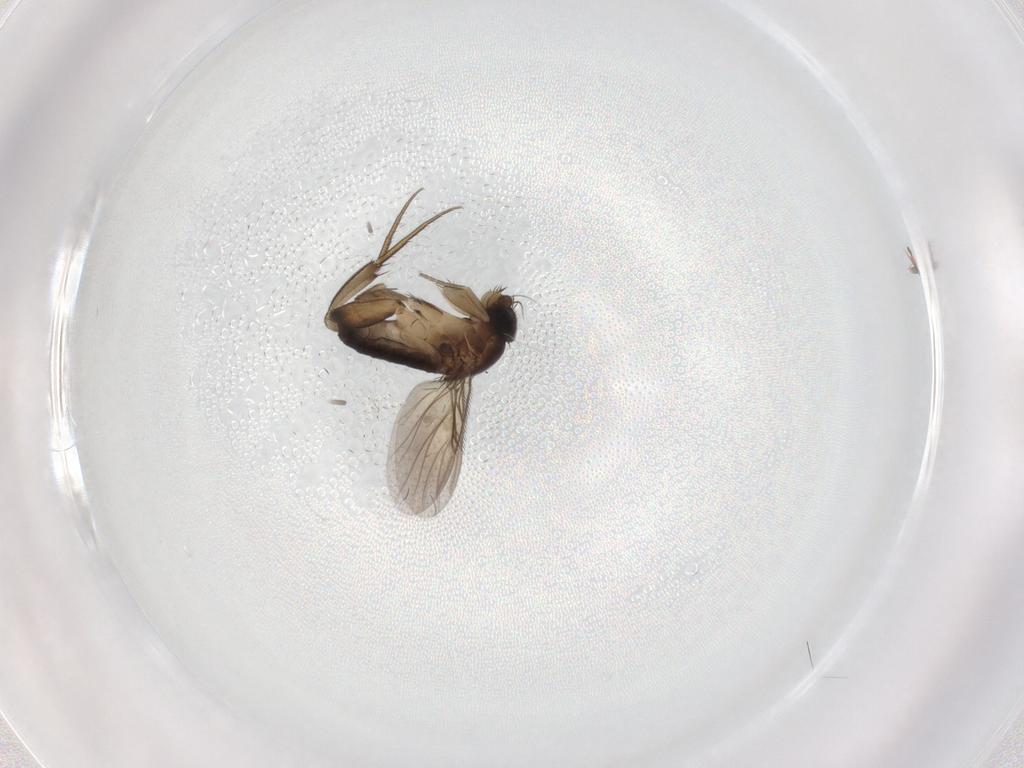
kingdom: Animalia
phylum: Arthropoda
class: Insecta
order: Diptera
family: Phoridae
